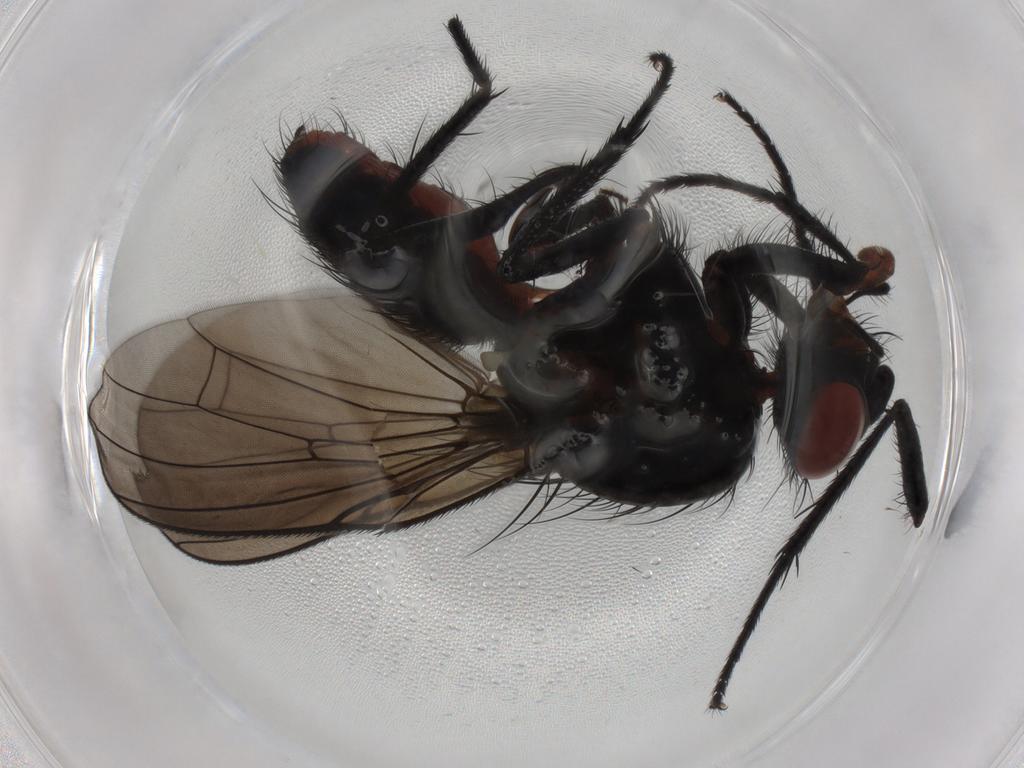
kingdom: Animalia
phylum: Arthropoda
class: Insecta
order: Diptera
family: Anthomyiidae
